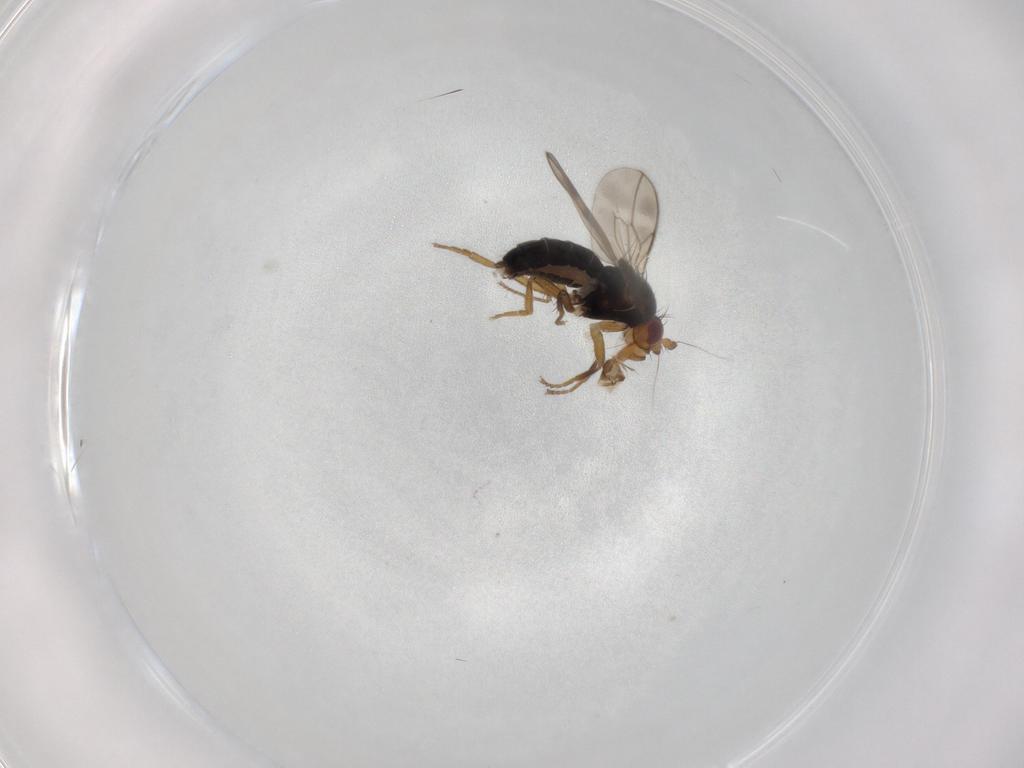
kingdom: Animalia
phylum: Arthropoda
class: Insecta
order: Diptera
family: Sphaeroceridae
